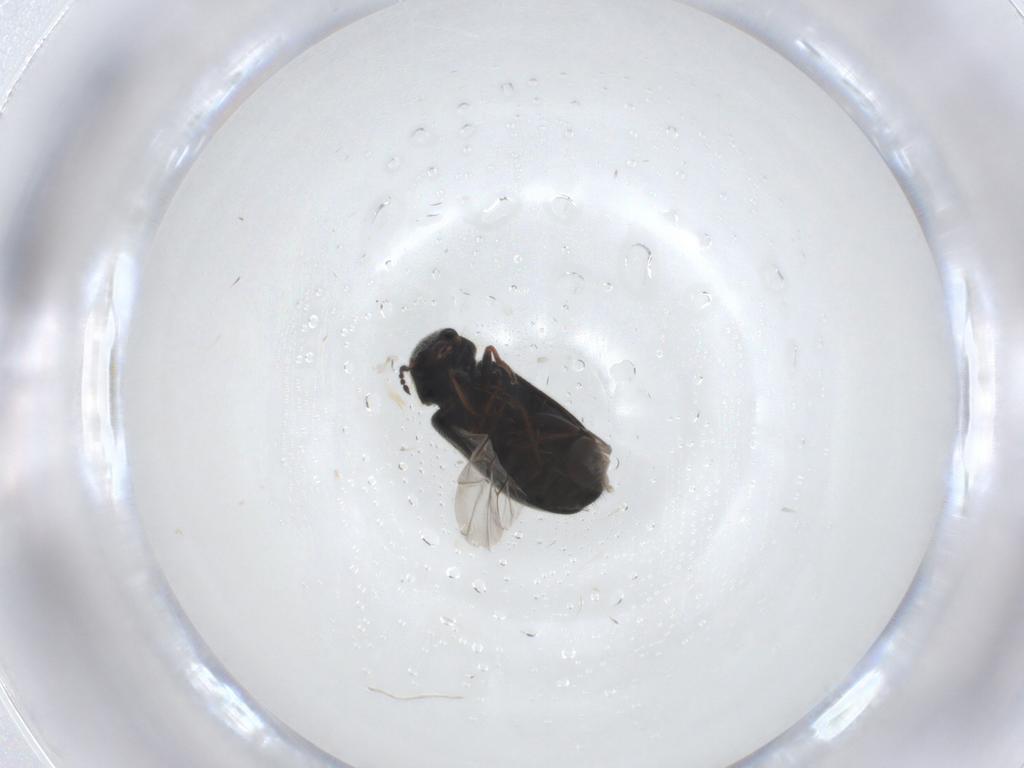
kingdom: Animalia
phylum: Arthropoda
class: Insecta
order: Coleoptera
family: Melyridae
